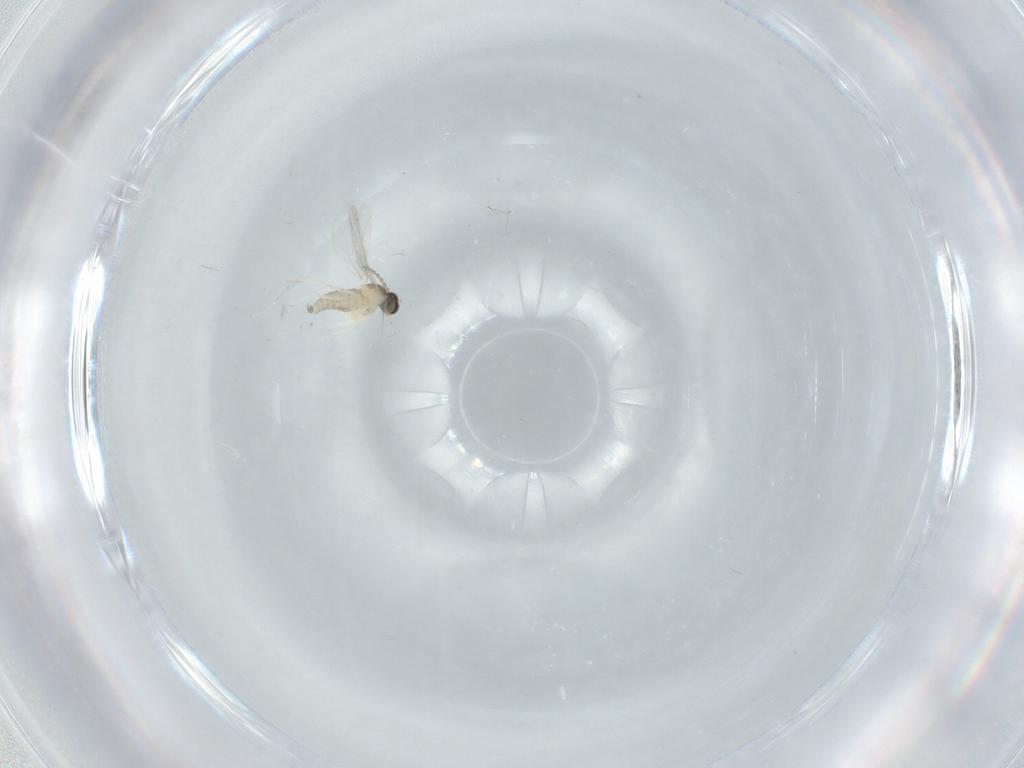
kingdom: Animalia
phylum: Arthropoda
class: Insecta
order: Diptera
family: Cecidomyiidae
